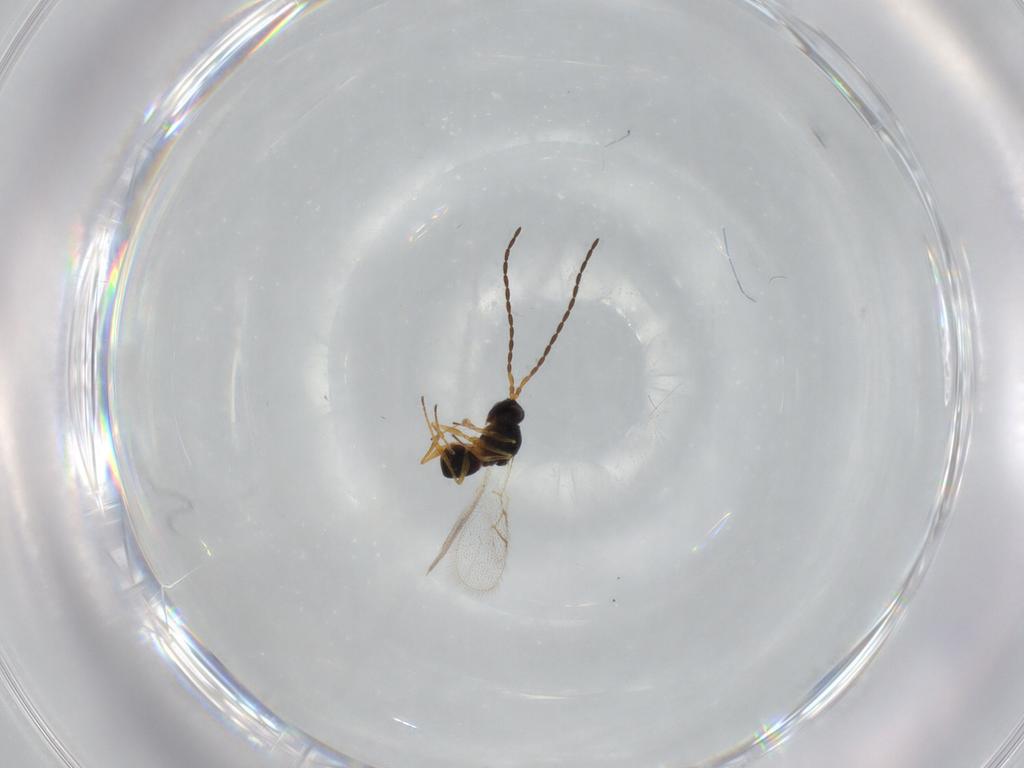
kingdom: Animalia
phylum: Arthropoda
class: Insecta
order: Hymenoptera
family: Figitidae
